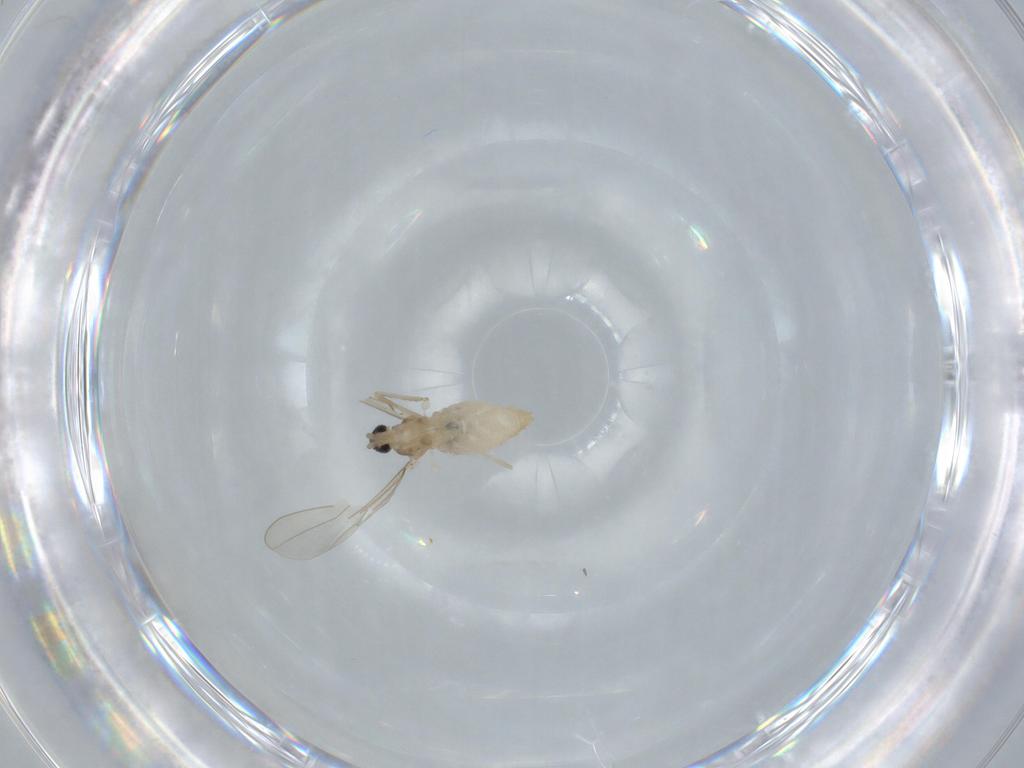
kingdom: Animalia
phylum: Arthropoda
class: Insecta
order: Diptera
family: Cecidomyiidae
